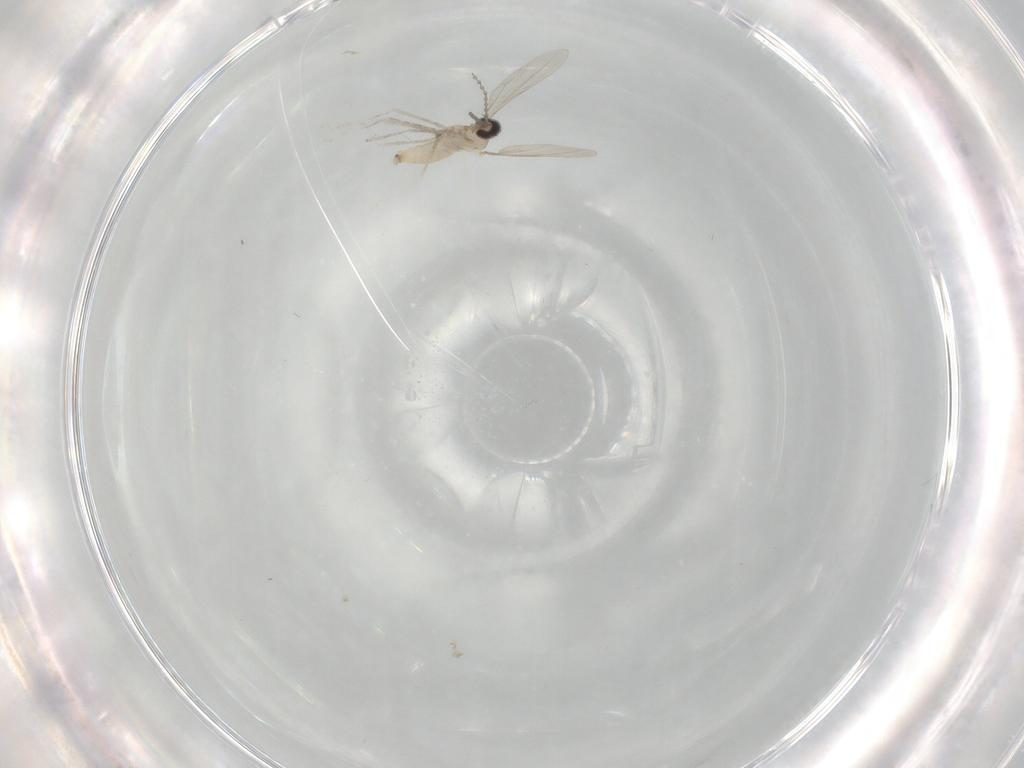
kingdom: Animalia
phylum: Arthropoda
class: Insecta
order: Diptera
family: Cecidomyiidae
